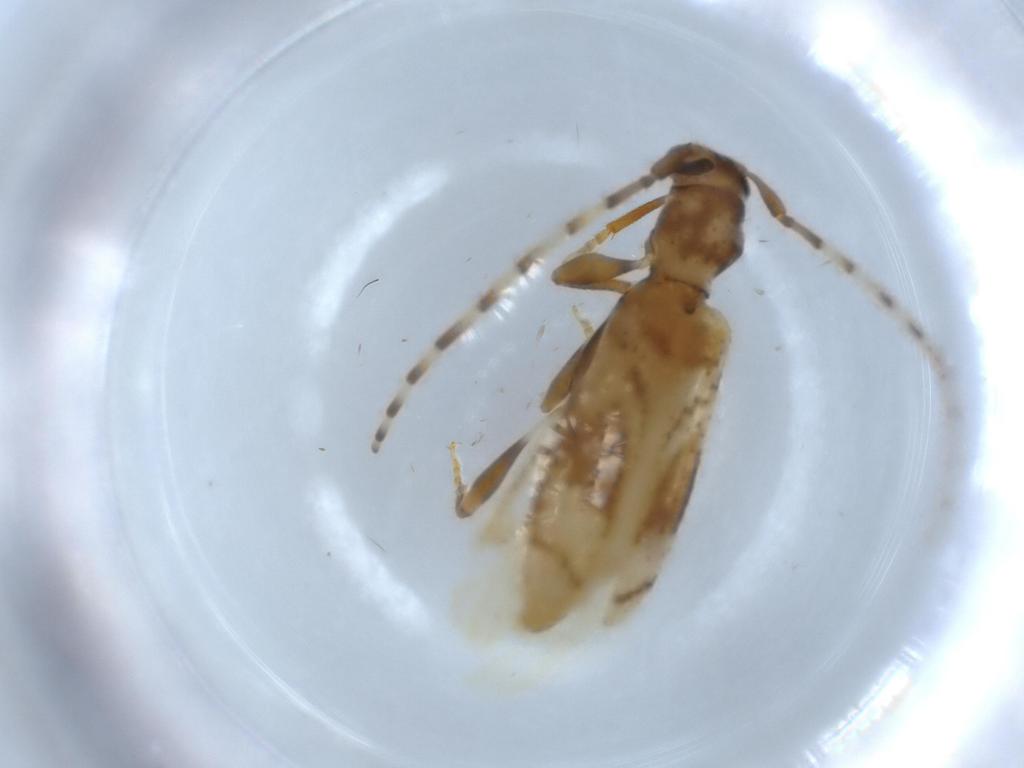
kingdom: Animalia
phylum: Arthropoda
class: Insecta
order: Coleoptera
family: Cerambycidae
